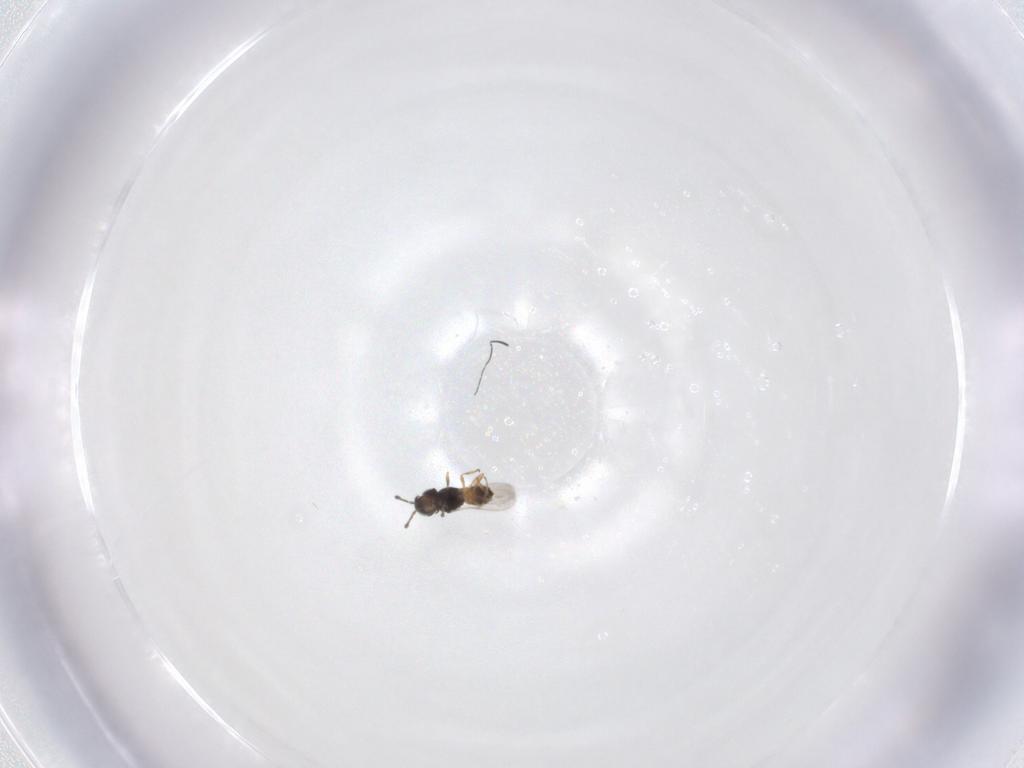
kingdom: Animalia
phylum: Arthropoda
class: Insecta
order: Hymenoptera
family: Scelionidae
